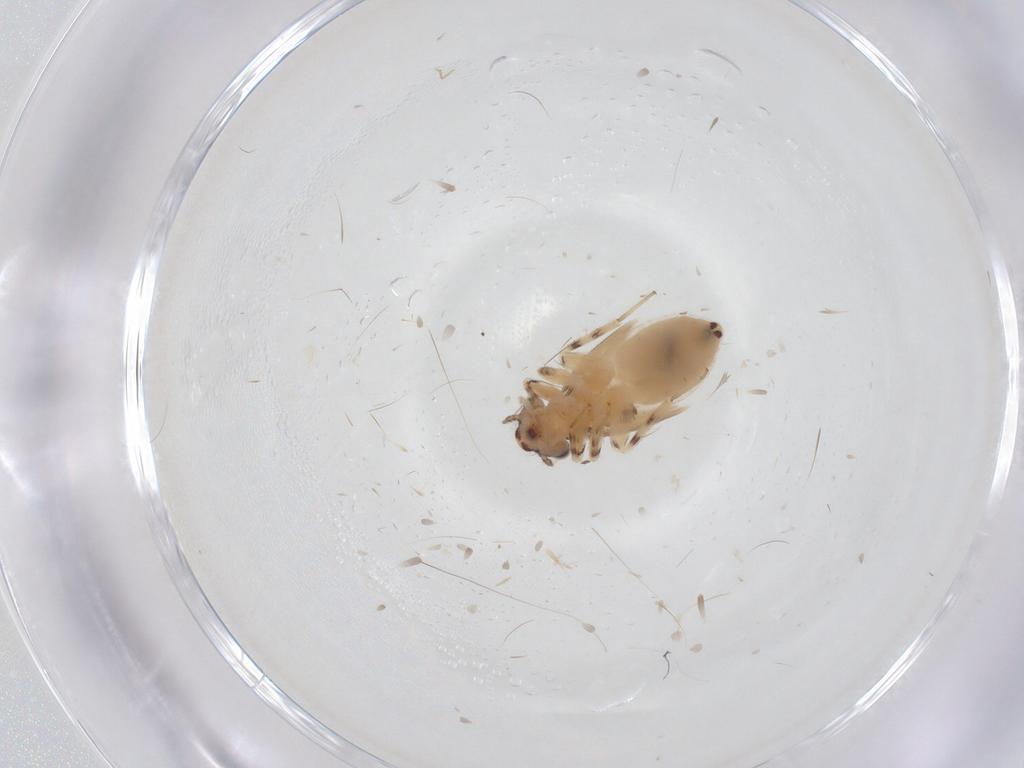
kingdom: Animalia
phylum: Arthropoda
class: Insecta
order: Psocodea
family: Lepidopsocidae
